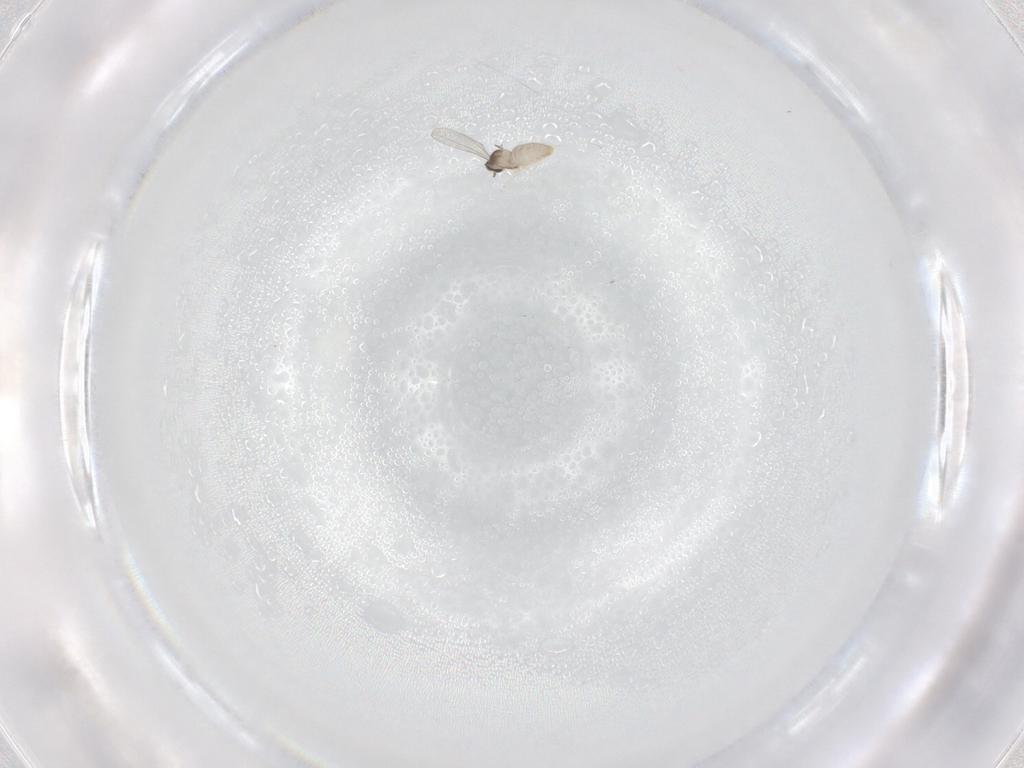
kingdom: Animalia
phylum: Arthropoda
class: Insecta
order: Diptera
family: Cecidomyiidae
